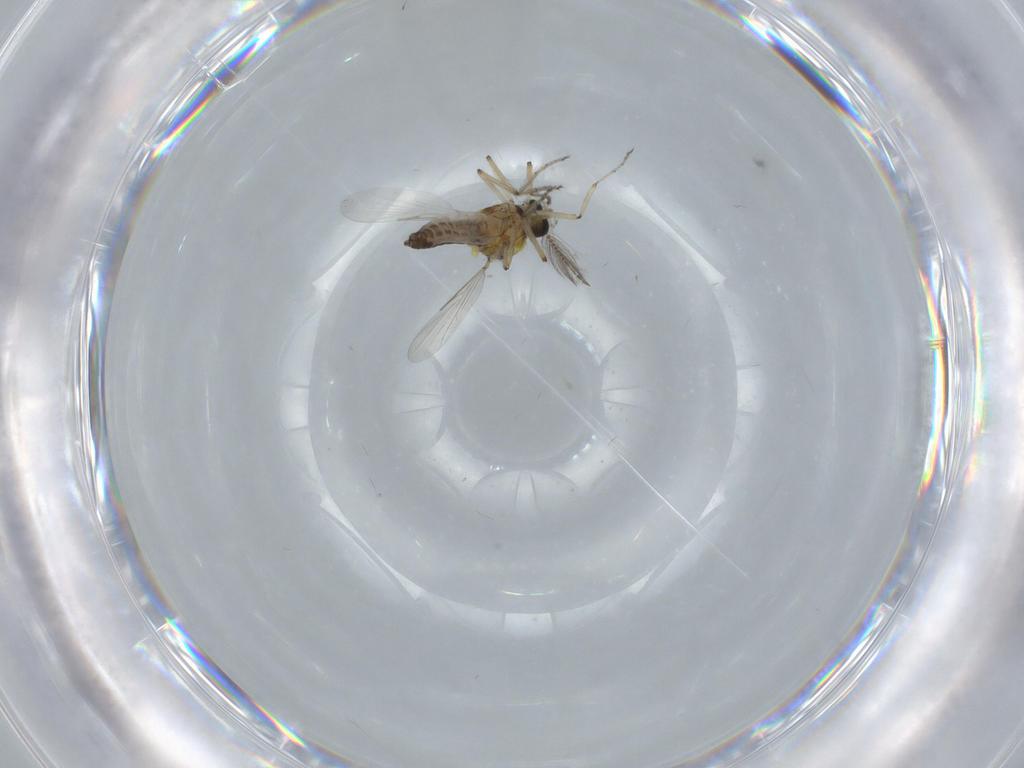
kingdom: Animalia
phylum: Arthropoda
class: Insecta
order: Diptera
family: Ceratopogonidae
